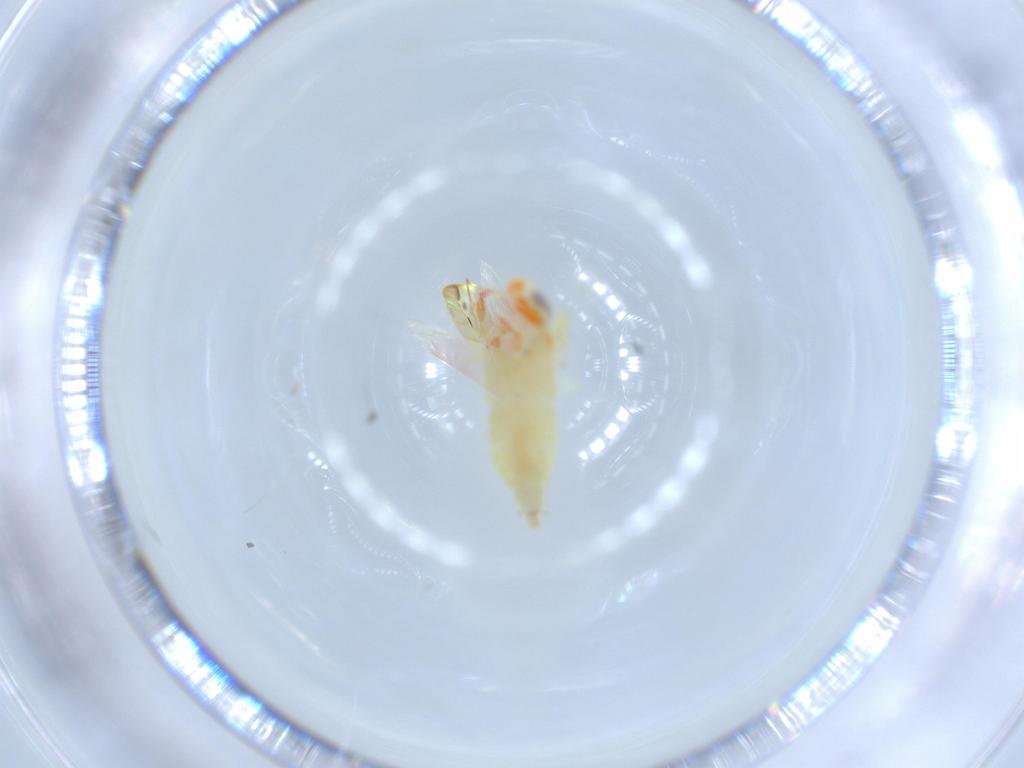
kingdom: Animalia
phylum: Arthropoda
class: Insecta
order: Hemiptera
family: Cicadellidae
